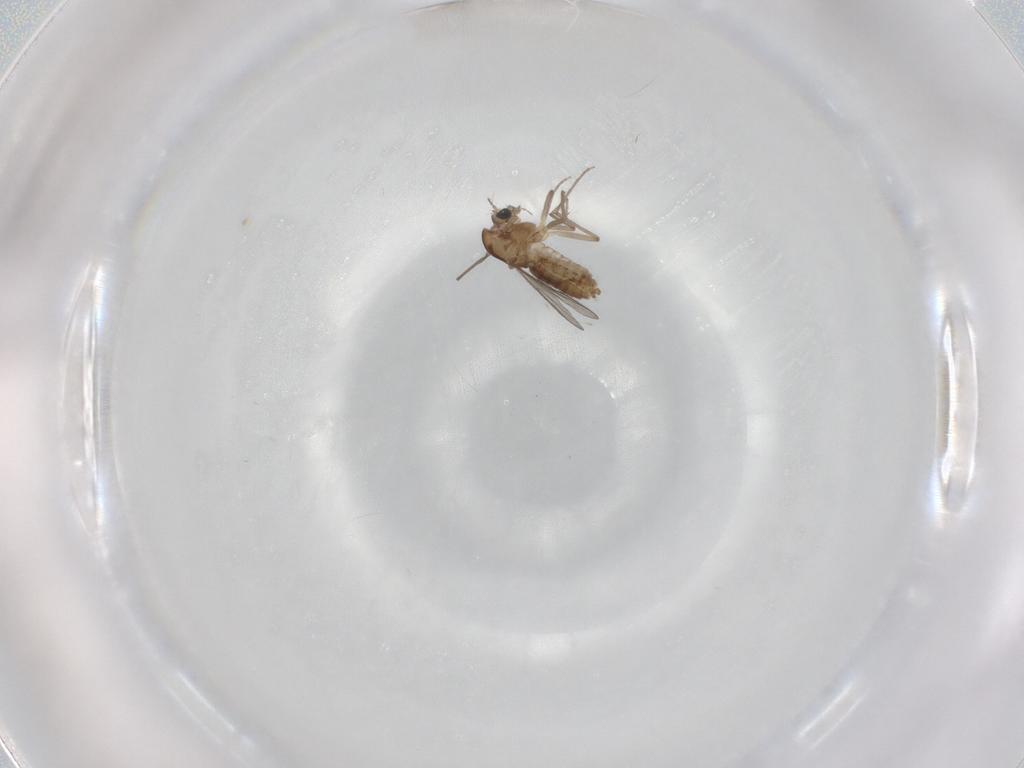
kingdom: Animalia
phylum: Arthropoda
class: Insecta
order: Diptera
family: Chironomidae
